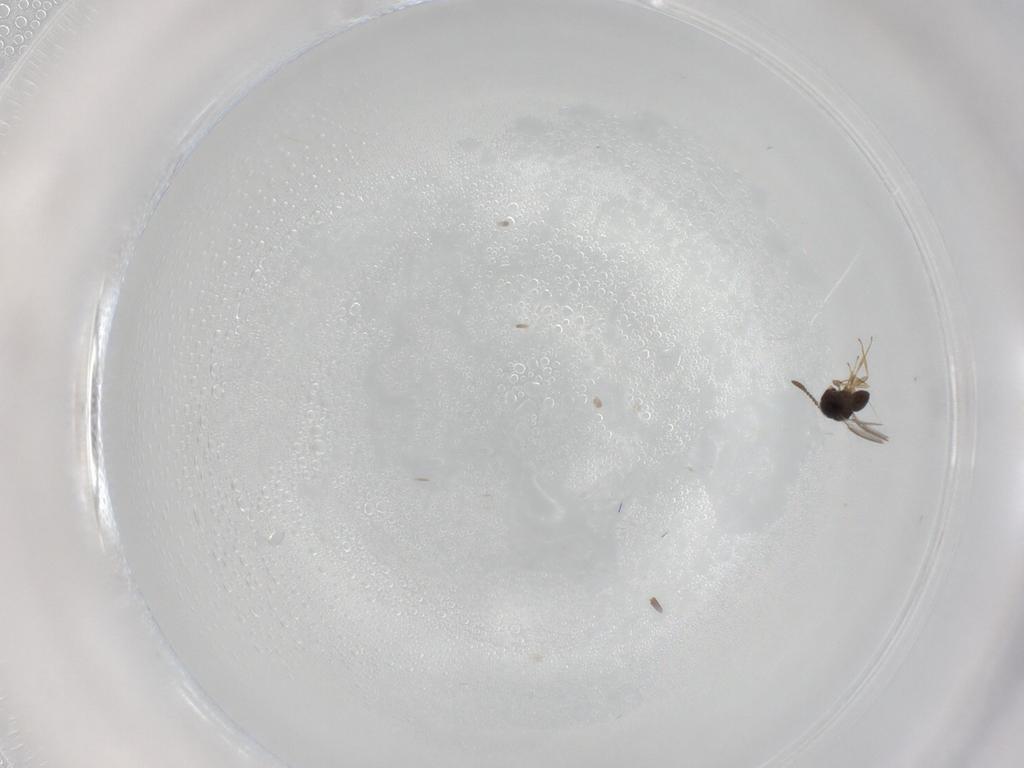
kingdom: Animalia
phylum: Arthropoda
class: Insecta
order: Hymenoptera
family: Scelionidae
